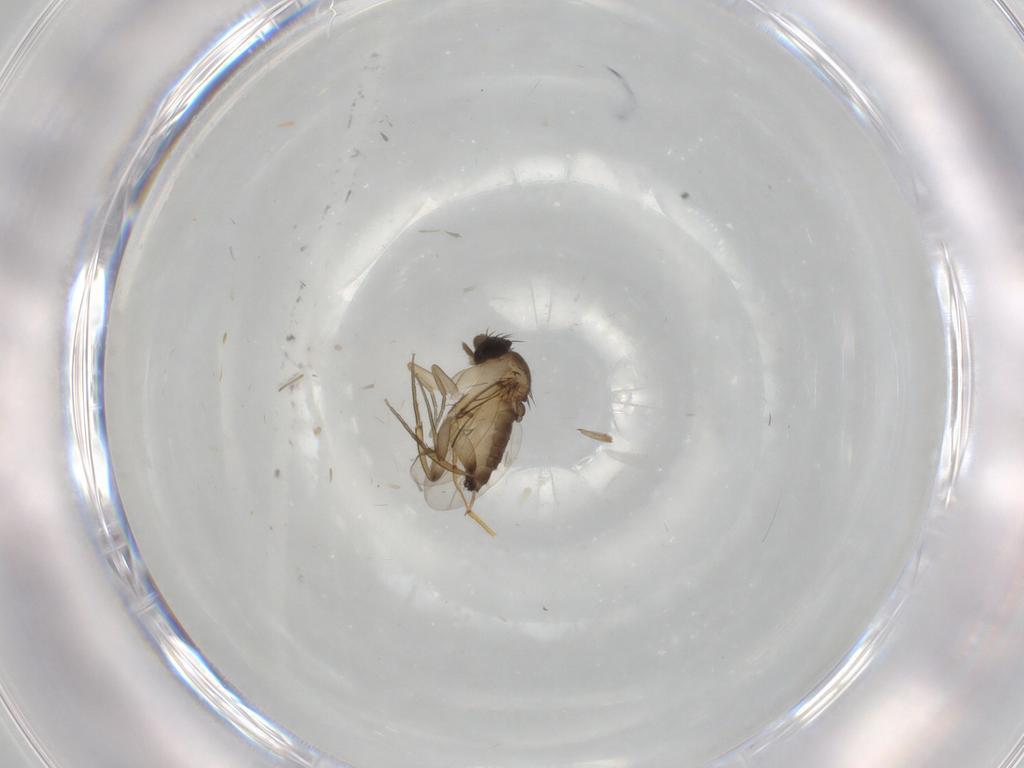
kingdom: Animalia
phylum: Arthropoda
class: Insecta
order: Diptera
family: Phoridae
